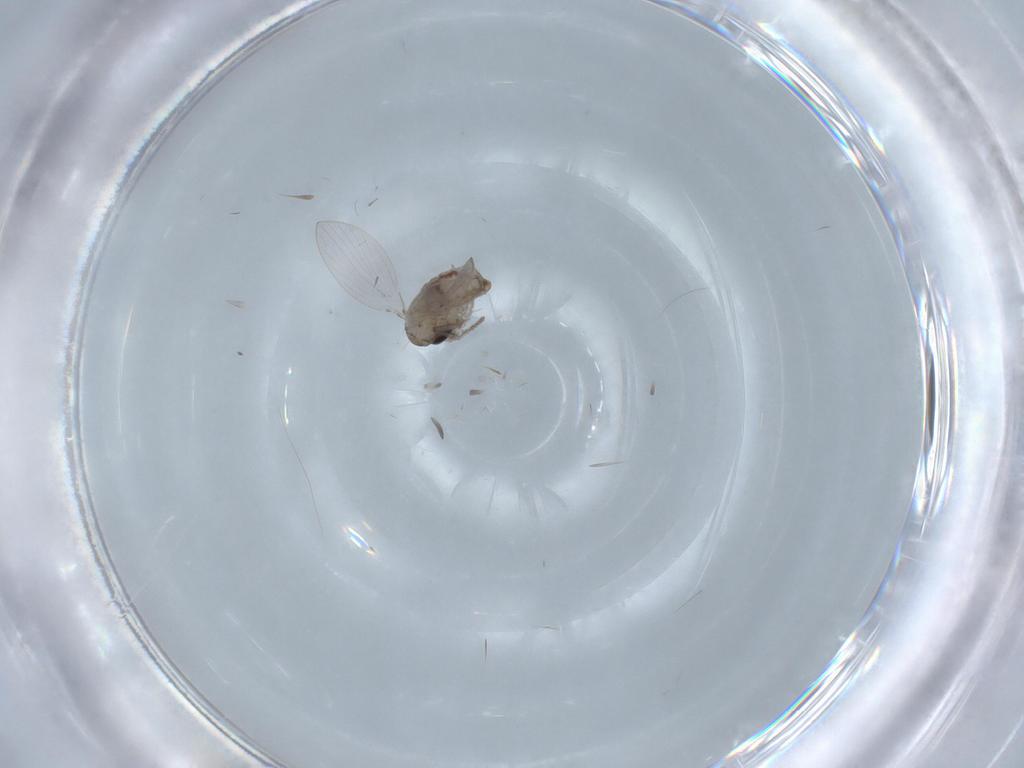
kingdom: Animalia
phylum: Arthropoda
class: Insecta
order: Diptera
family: Psychodidae
